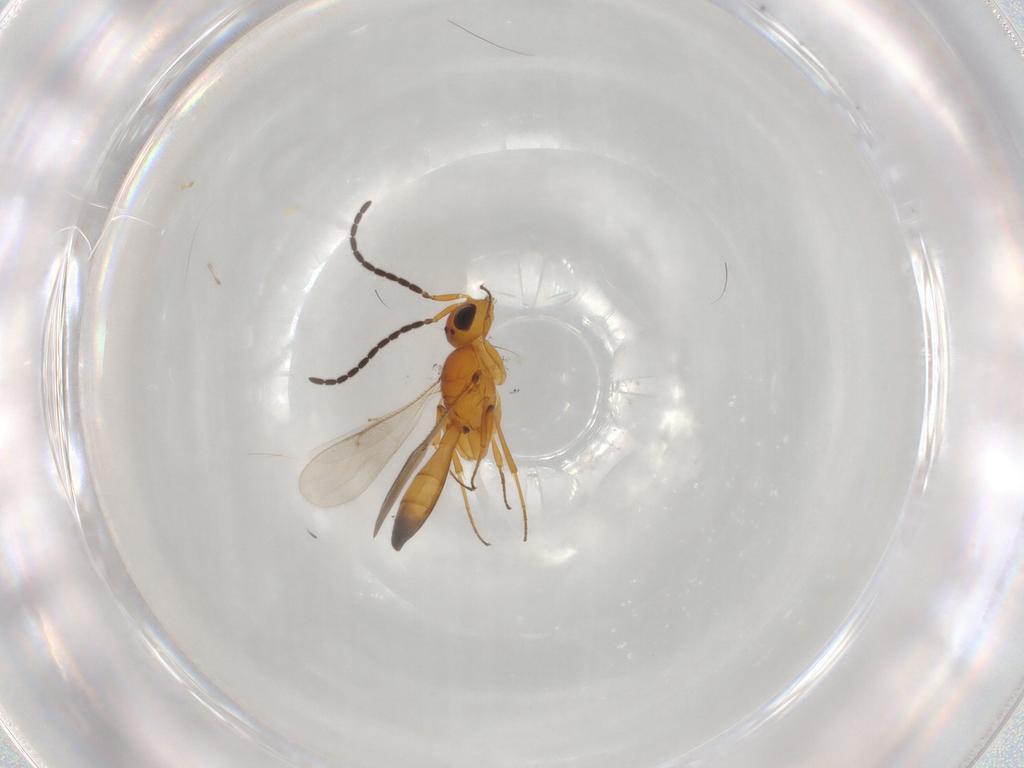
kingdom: Animalia
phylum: Arthropoda
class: Insecta
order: Hymenoptera
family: Scelionidae
